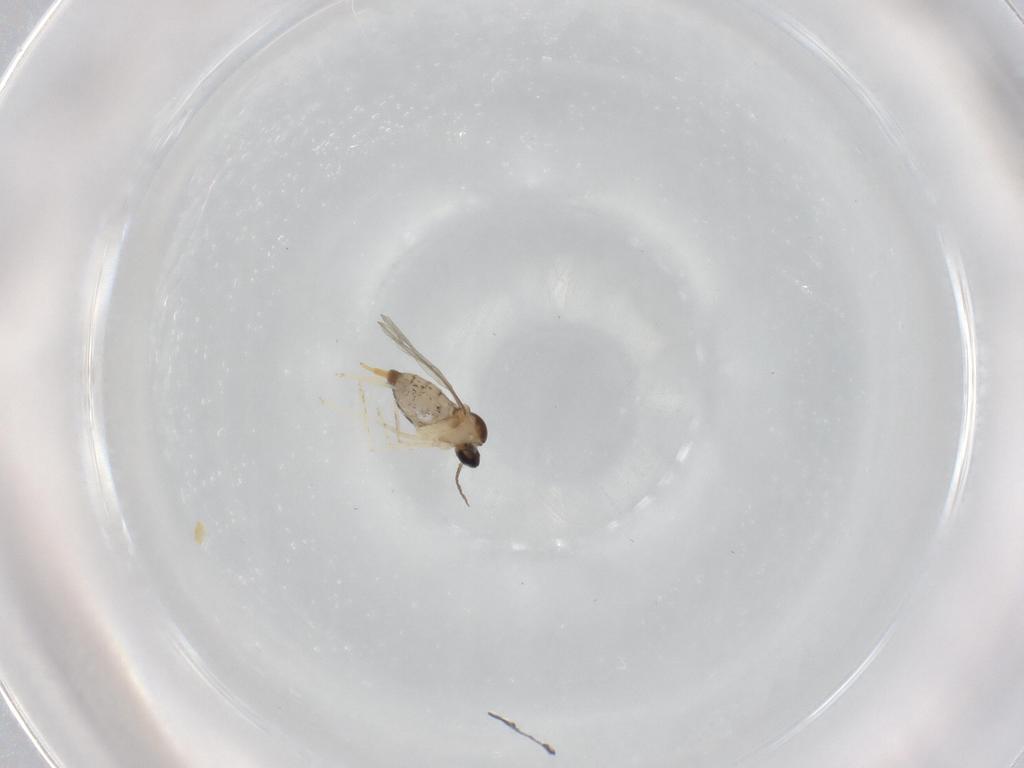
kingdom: Animalia
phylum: Arthropoda
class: Insecta
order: Diptera
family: Cecidomyiidae
